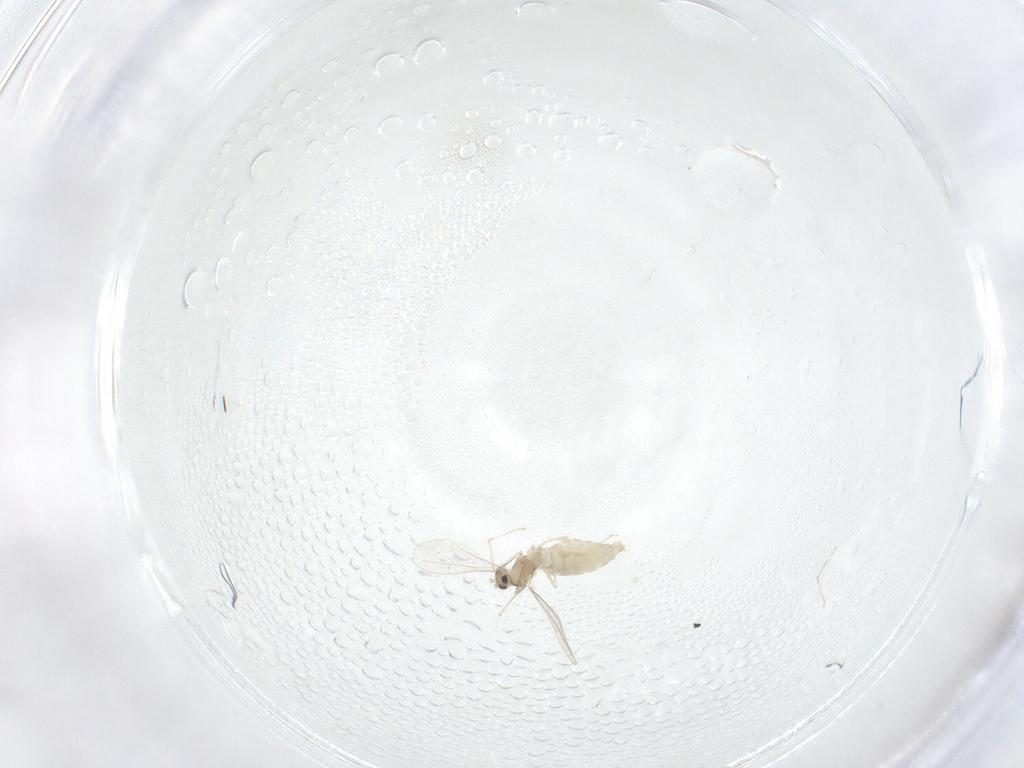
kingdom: Animalia
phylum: Arthropoda
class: Insecta
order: Diptera
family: Cecidomyiidae
